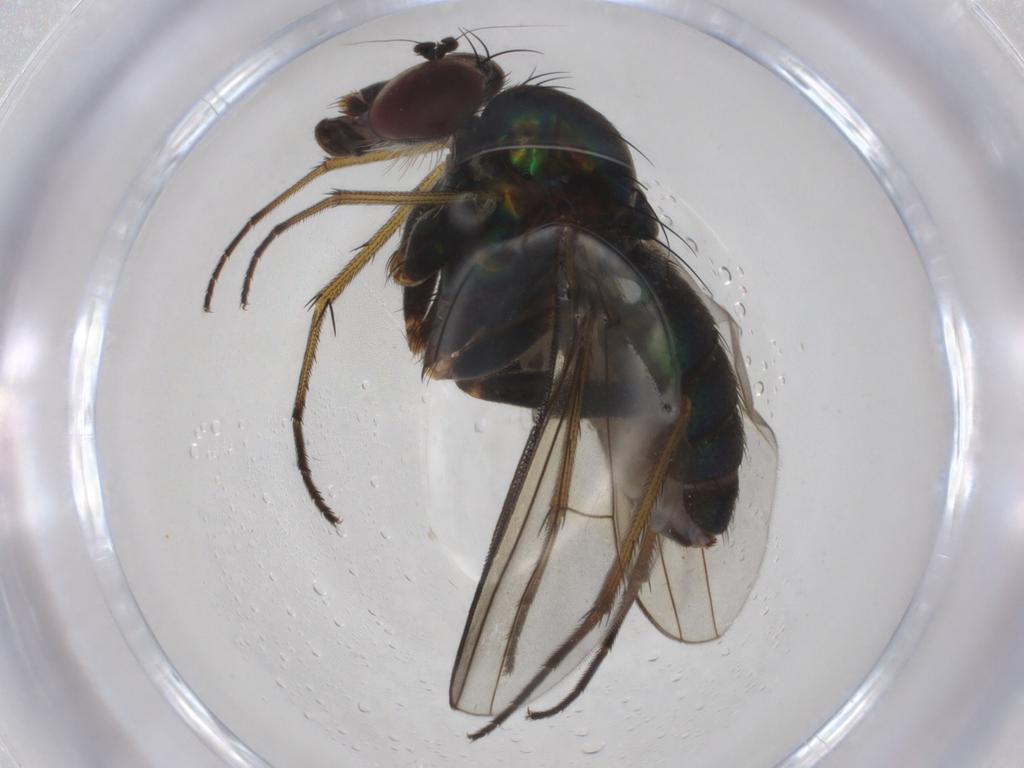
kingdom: Animalia
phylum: Arthropoda
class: Insecta
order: Diptera
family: Dolichopodidae
